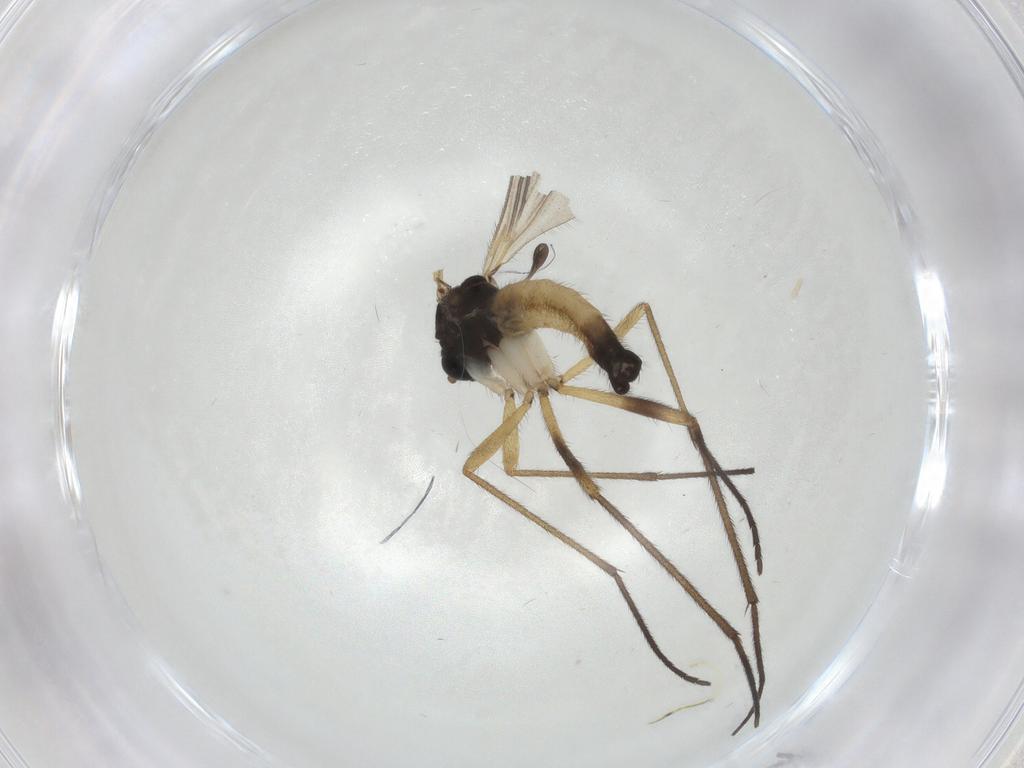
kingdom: Animalia
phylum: Arthropoda
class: Insecta
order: Diptera
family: Sciaridae
